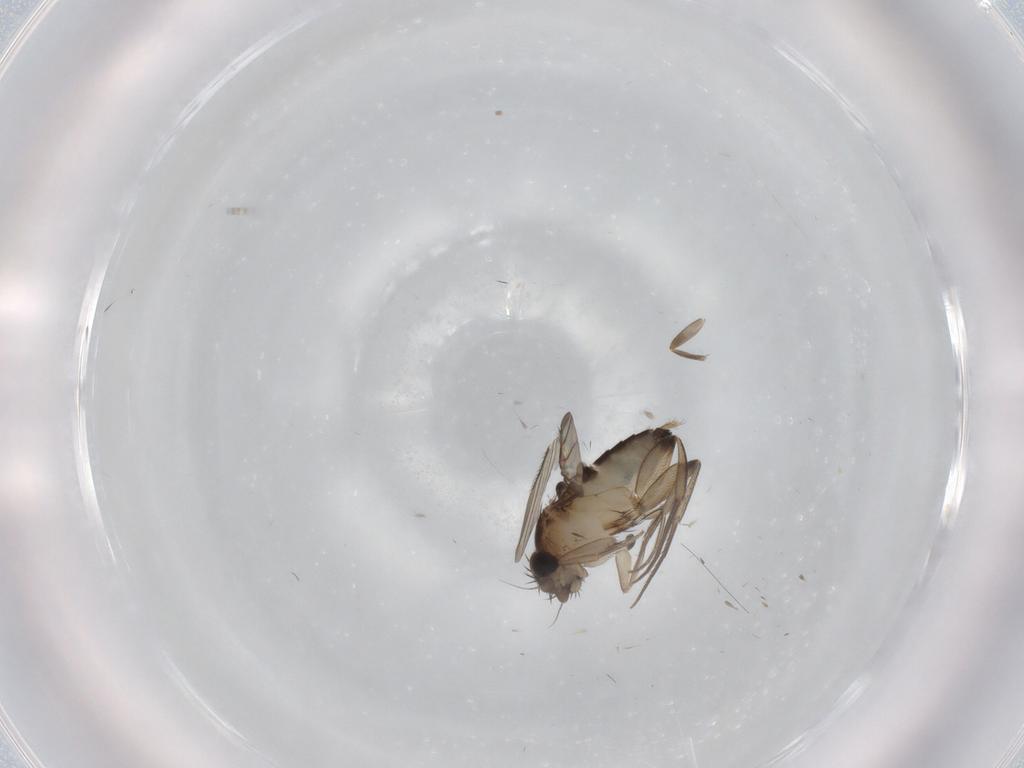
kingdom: Animalia
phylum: Arthropoda
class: Insecta
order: Diptera
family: Phoridae
